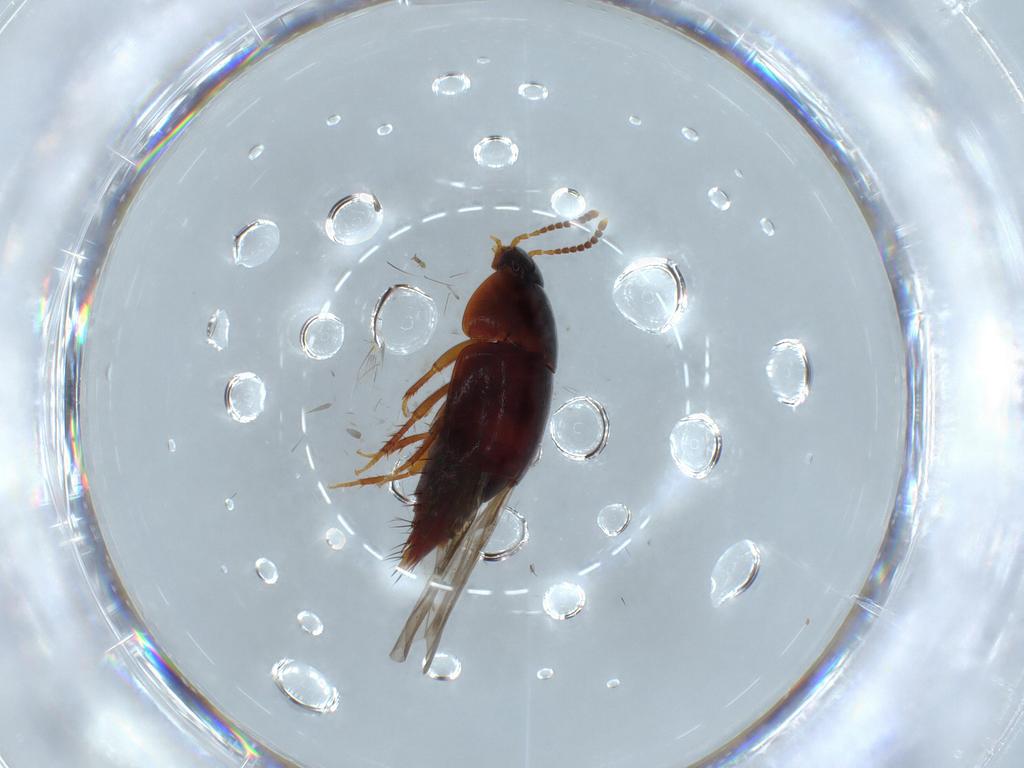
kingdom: Animalia
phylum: Arthropoda
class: Insecta
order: Coleoptera
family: Staphylinidae
